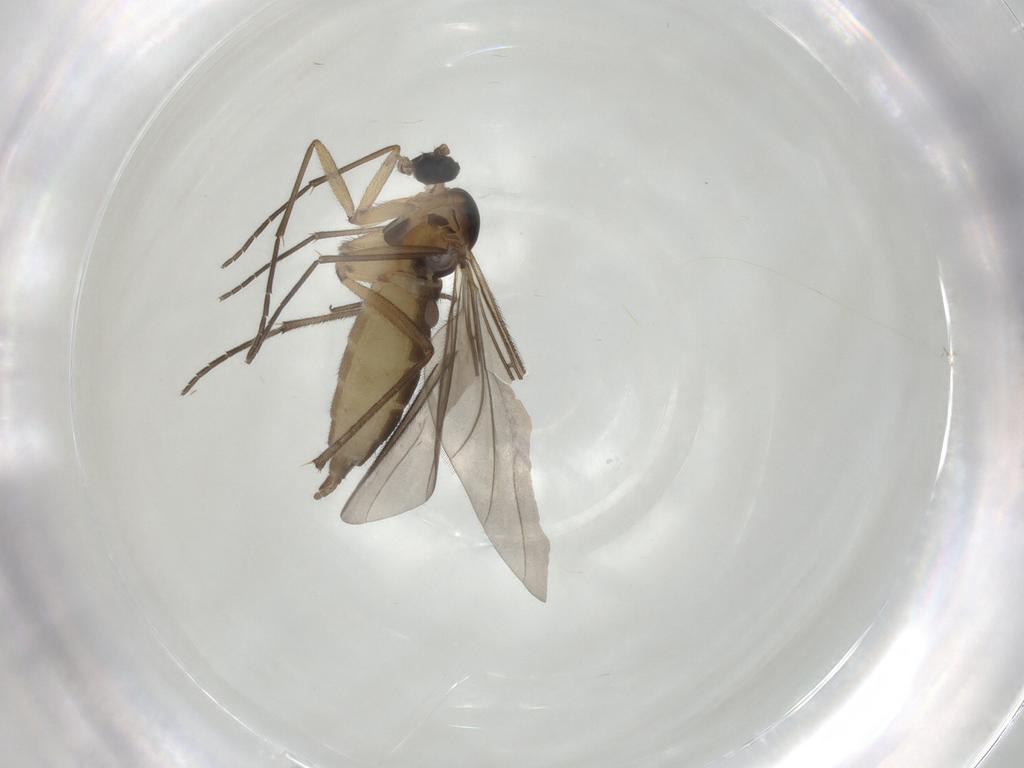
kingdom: Animalia
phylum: Arthropoda
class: Insecta
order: Diptera
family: Sciaridae
